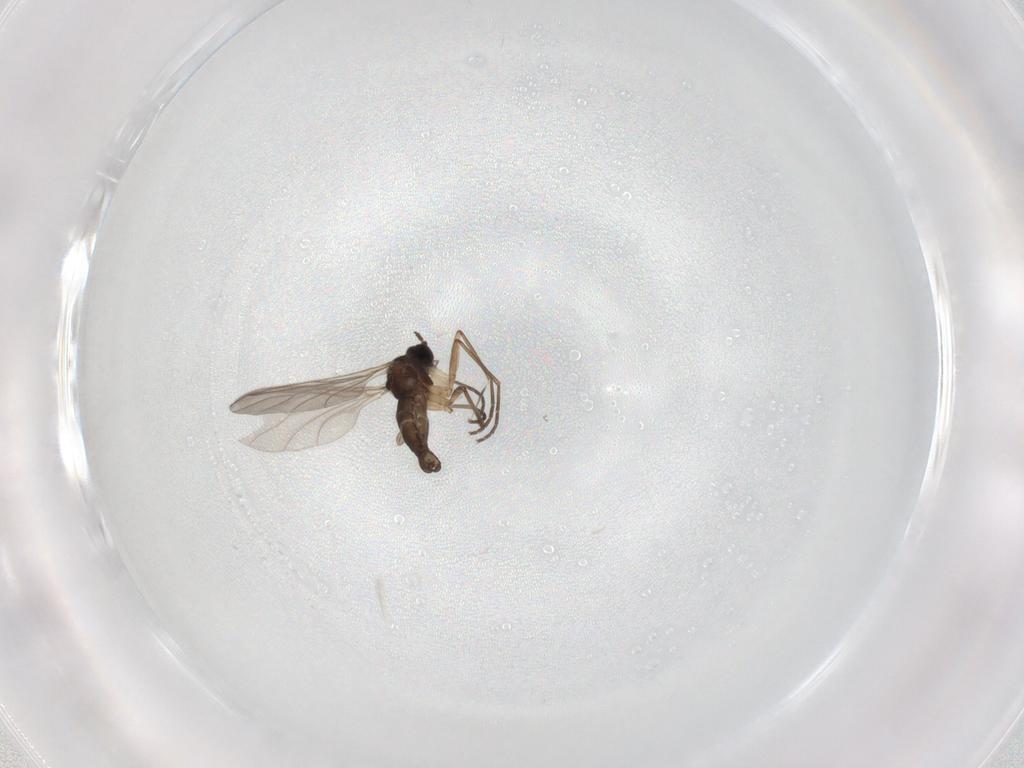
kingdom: Animalia
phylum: Arthropoda
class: Insecta
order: Diptera
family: Sciaridae
